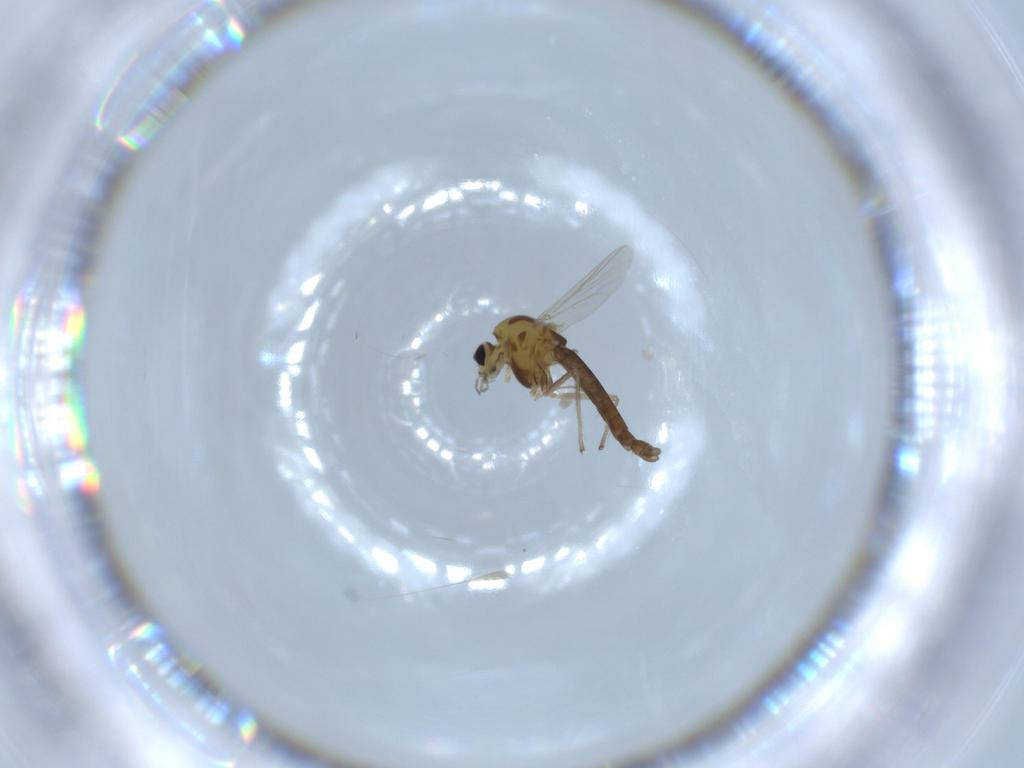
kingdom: Animalia
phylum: Arthropoda
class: Insecta
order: Diptera
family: Chironomidae
